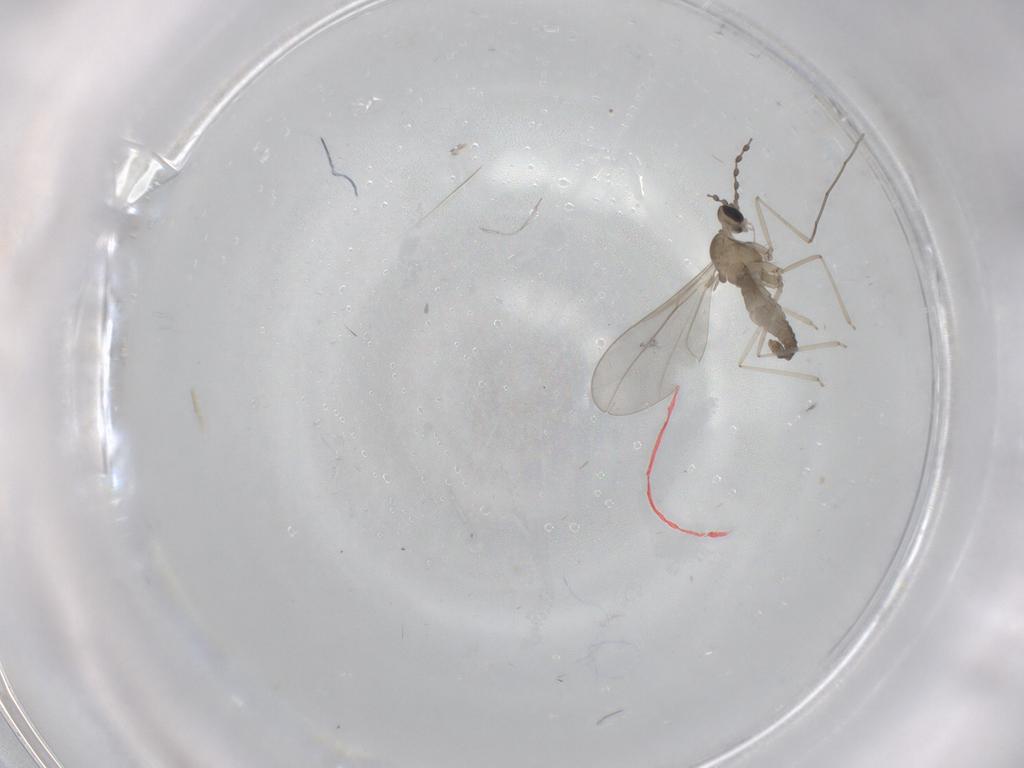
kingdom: Animalia
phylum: Arthropoda
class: Insecta
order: Diptera
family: Cecidomyiidae
